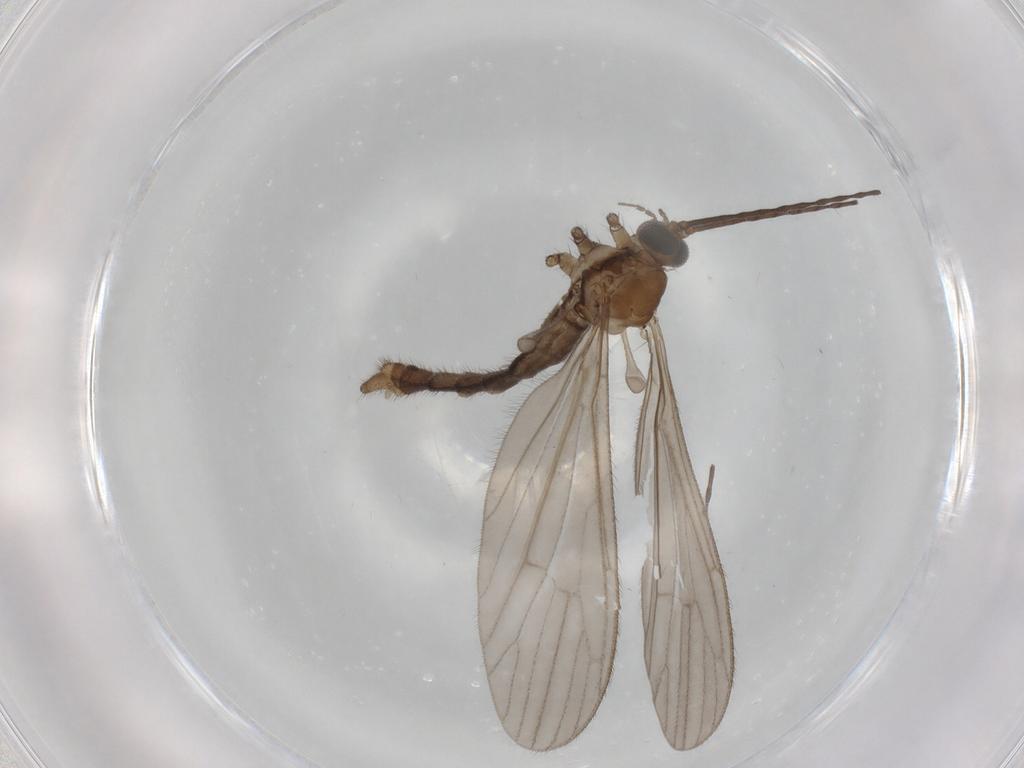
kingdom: Animalia
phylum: Arthropoda
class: Insecta
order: Diptera
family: Limoniidae
